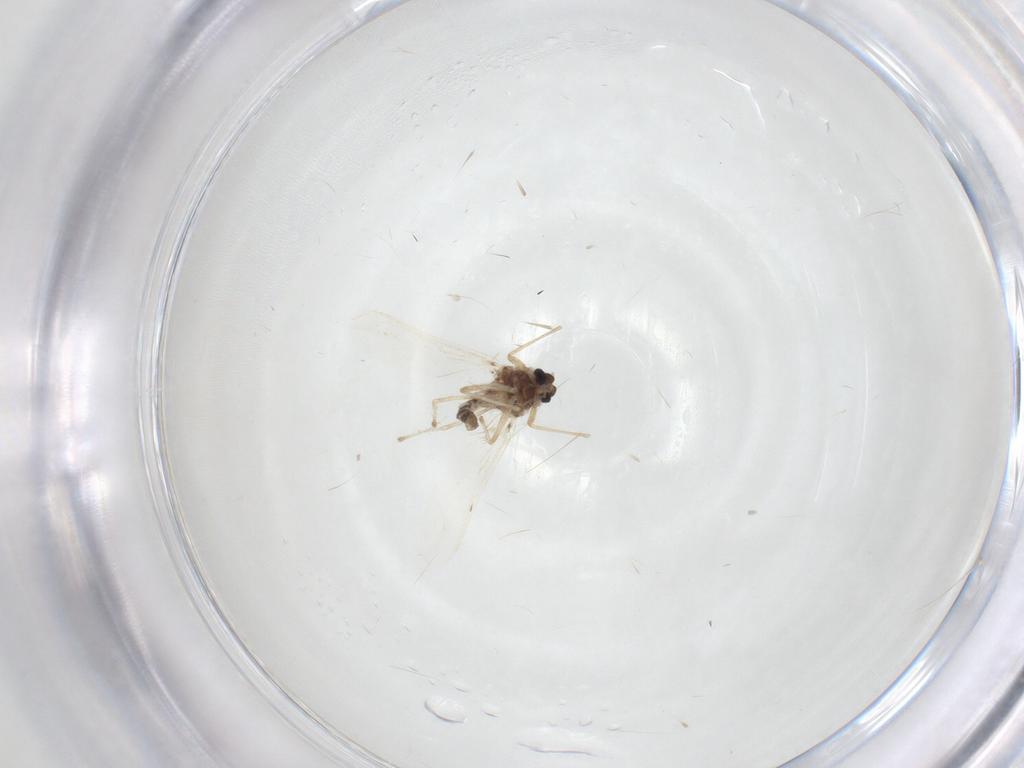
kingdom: Animalia
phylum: Arthropoda
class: Insecta
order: Diptera
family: Chironomidae
